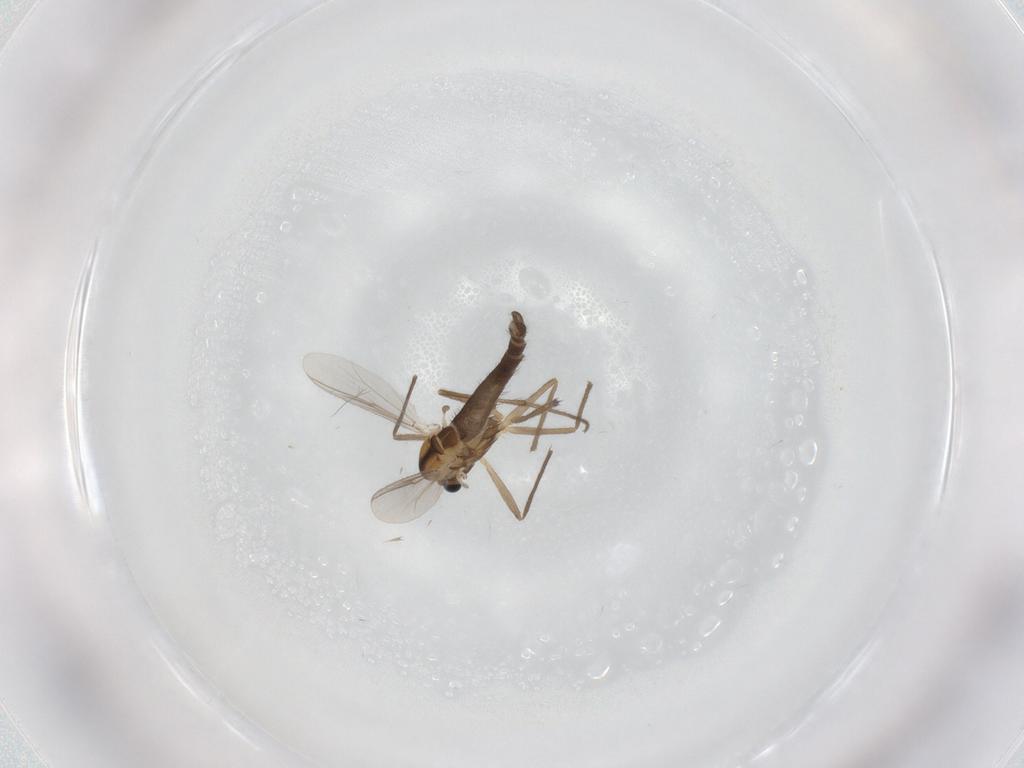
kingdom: Animalia
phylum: Arthropoda
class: Insecta
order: Diptera
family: Chironomidae
